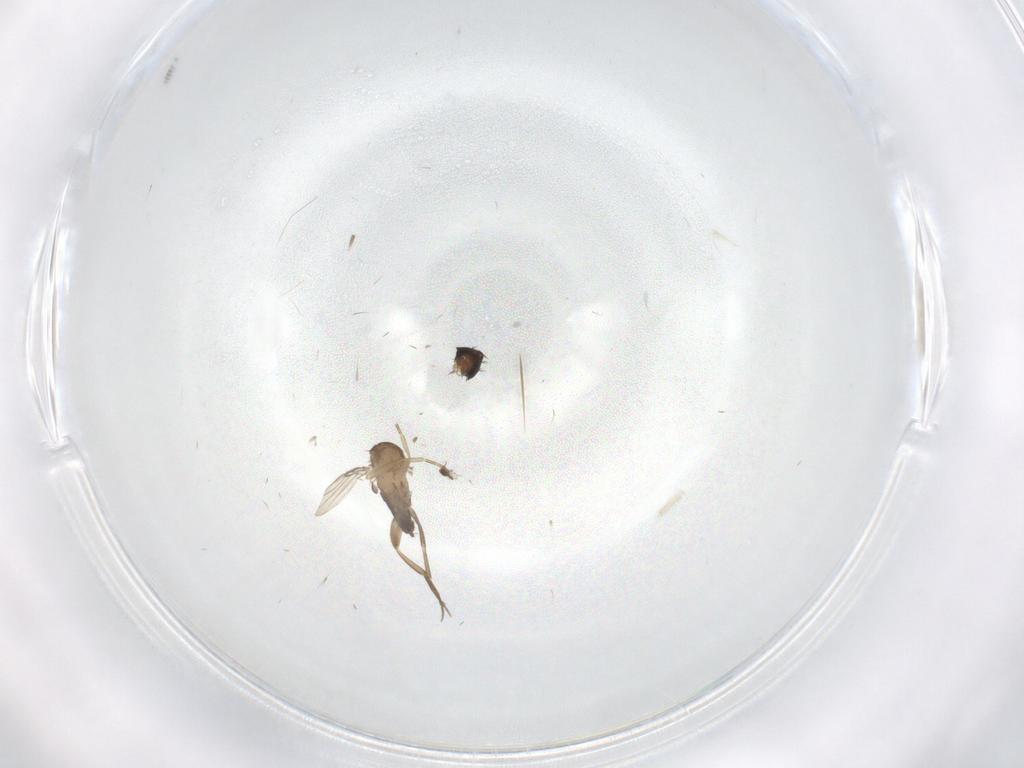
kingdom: Animalia
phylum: Arthropoda
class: Insecta
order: Diptera
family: Phoridae
